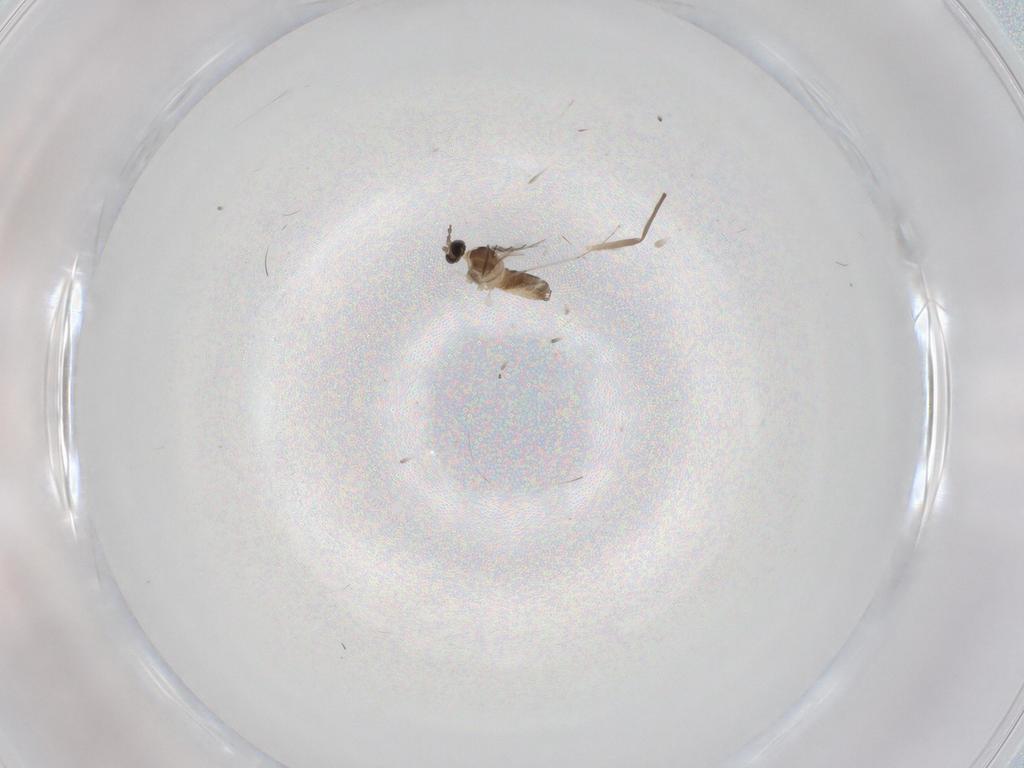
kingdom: Animalia
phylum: Arthropoda
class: Insecta
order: Diptera
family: Cecidomyiidae
